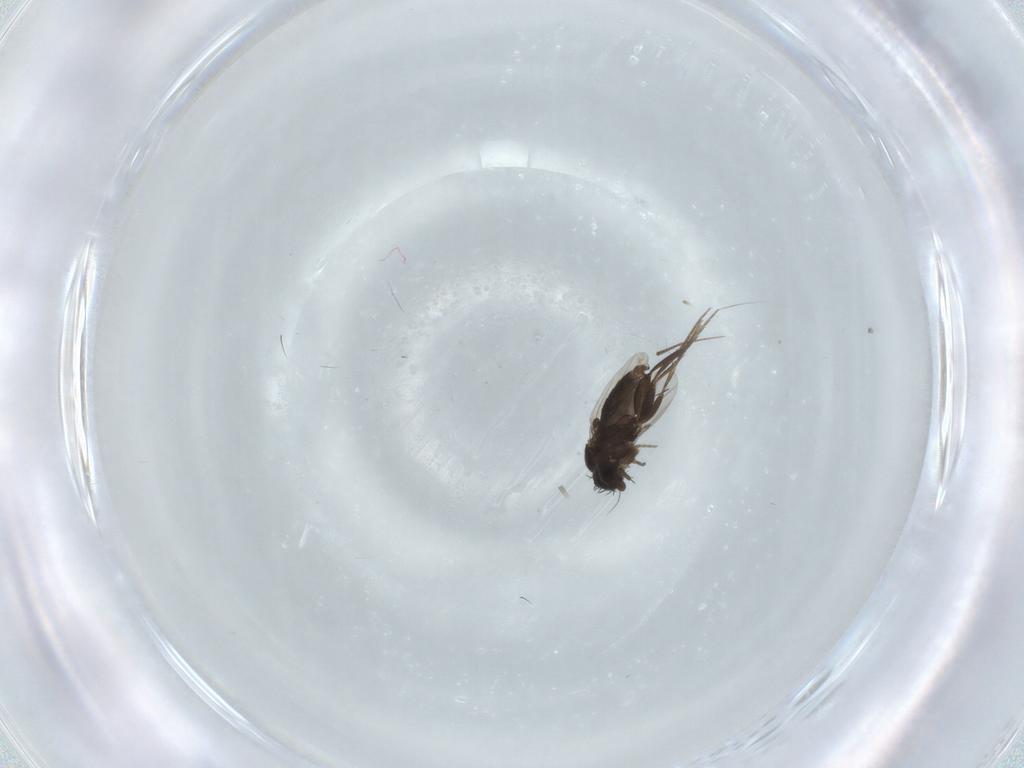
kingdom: Animalia
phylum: Arthropoda
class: Insecta
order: Diptera
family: Phoridae
